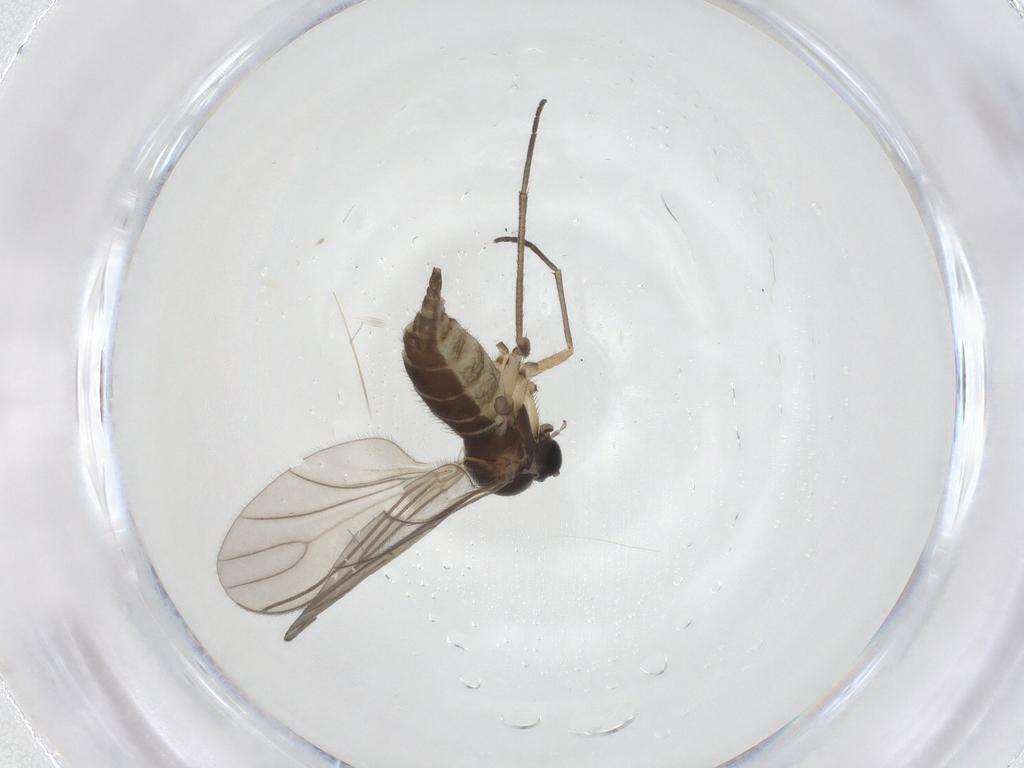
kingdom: Animalia
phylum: Arthropoda
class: Insecta
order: Diptera
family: Sciaridae
